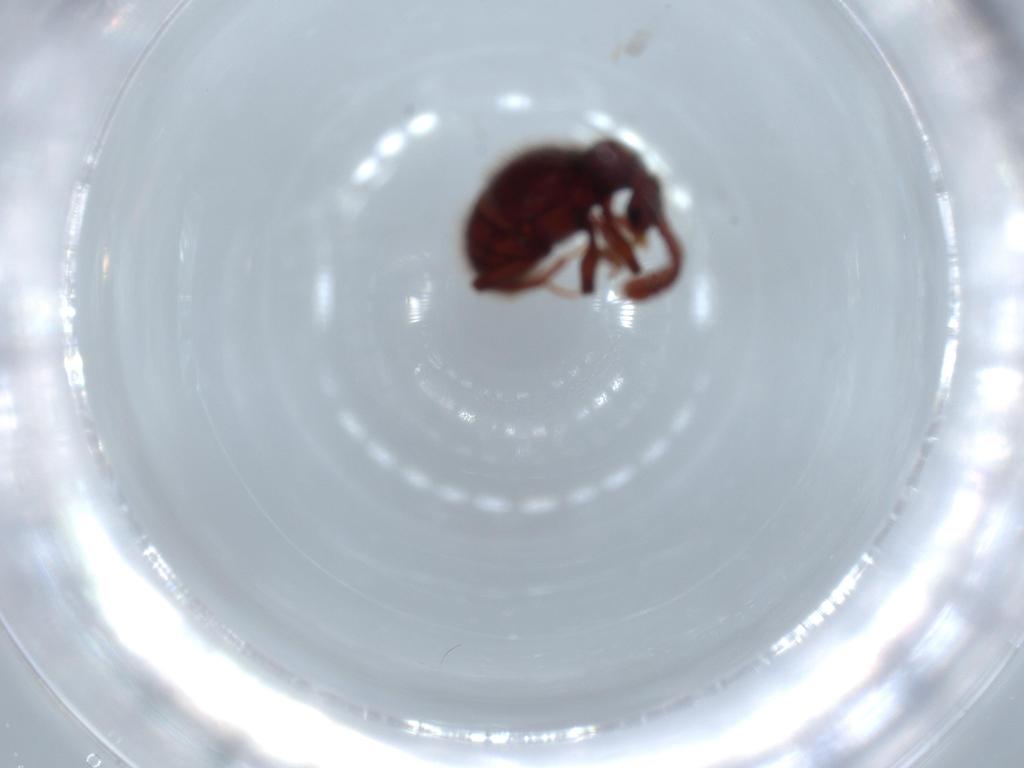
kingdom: Animalia
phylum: Arthropoda
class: Insecta
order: Coleoptera
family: Staphylinidae
